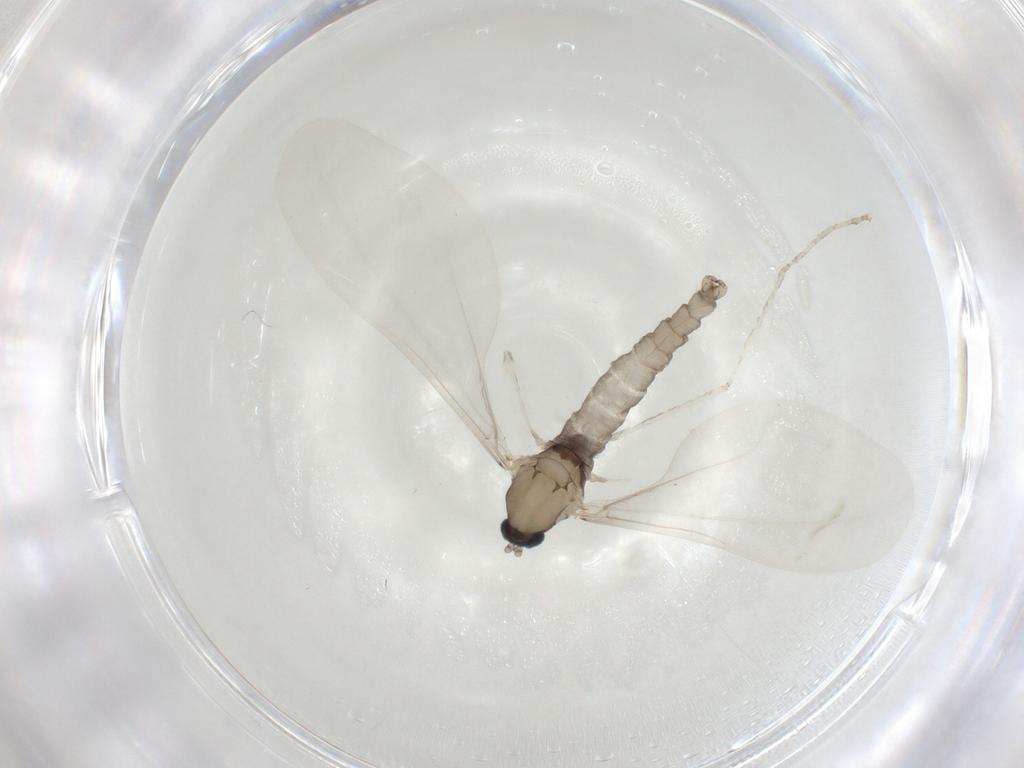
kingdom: Animalia
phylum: Arthropoda
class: Insecta
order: Diptera
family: Cecidomyiidae
